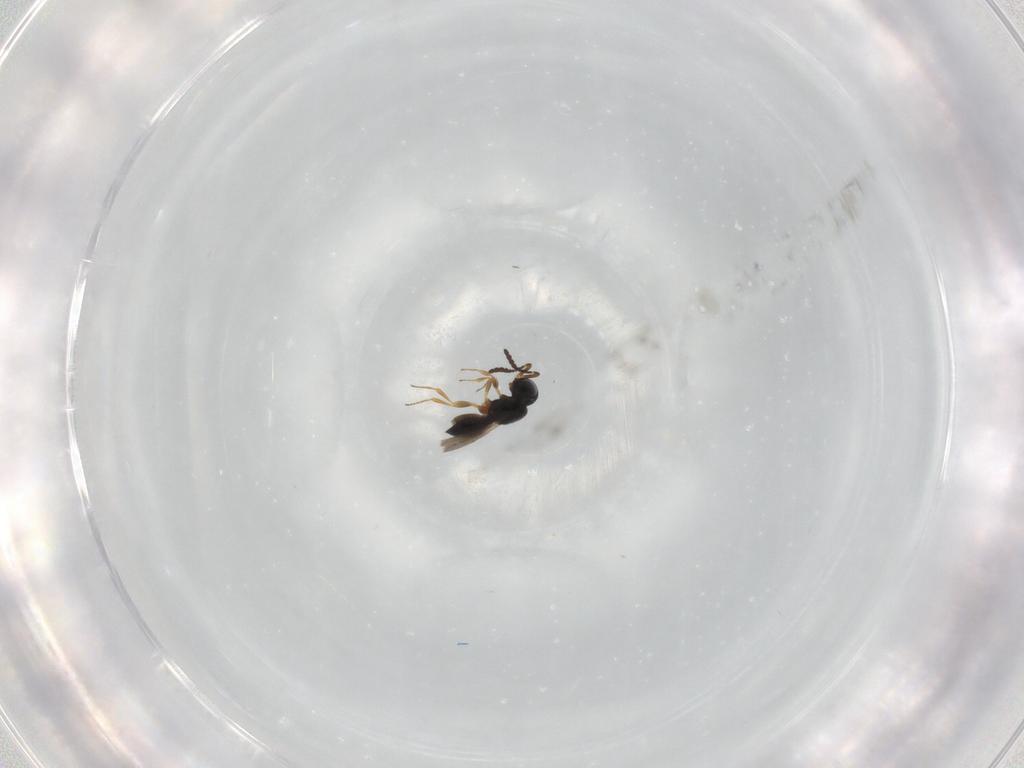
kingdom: Animalia
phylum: Arthropoda
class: Insecta
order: Hymenoptera
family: Scelionidae
